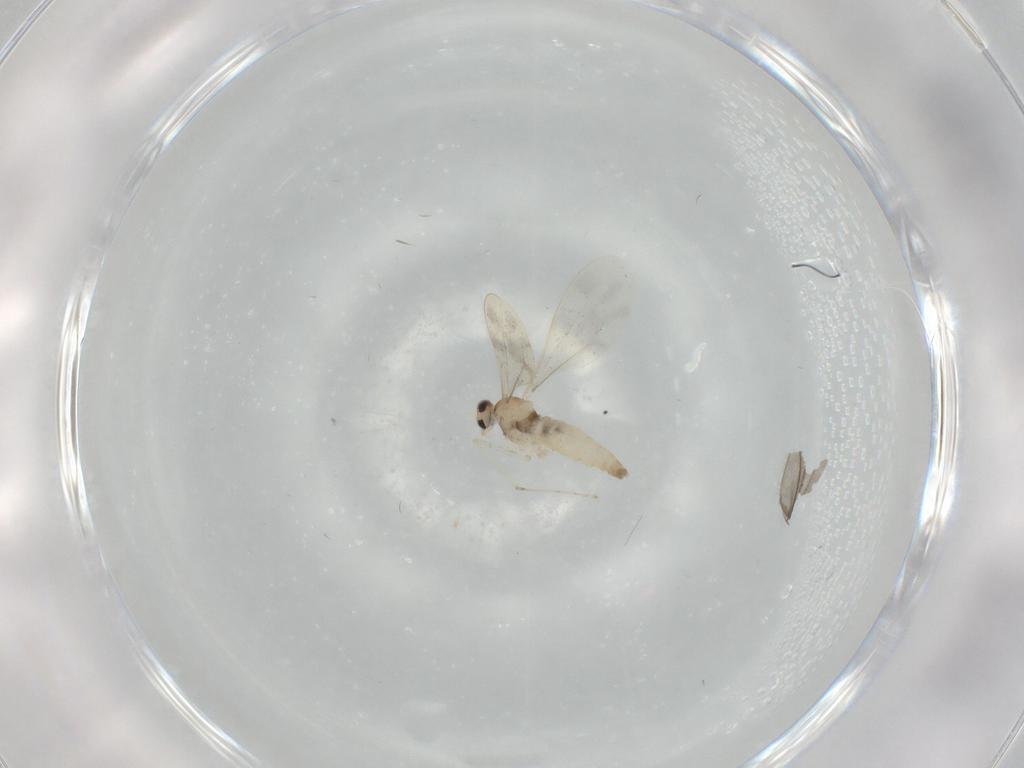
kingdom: Animalia
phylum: Arthropoda
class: Insecta
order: Diptera
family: Cecidomyiidae
